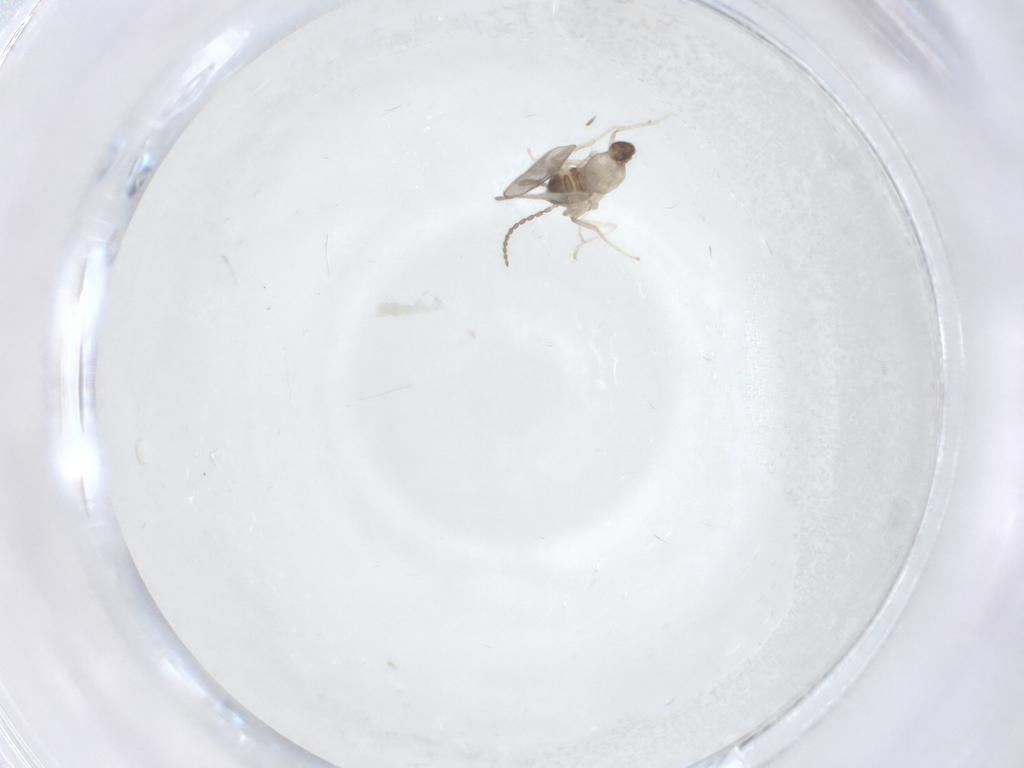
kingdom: Animalia
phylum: Arthropoda
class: Insecta
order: Diptera
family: Cecidomyiidae
